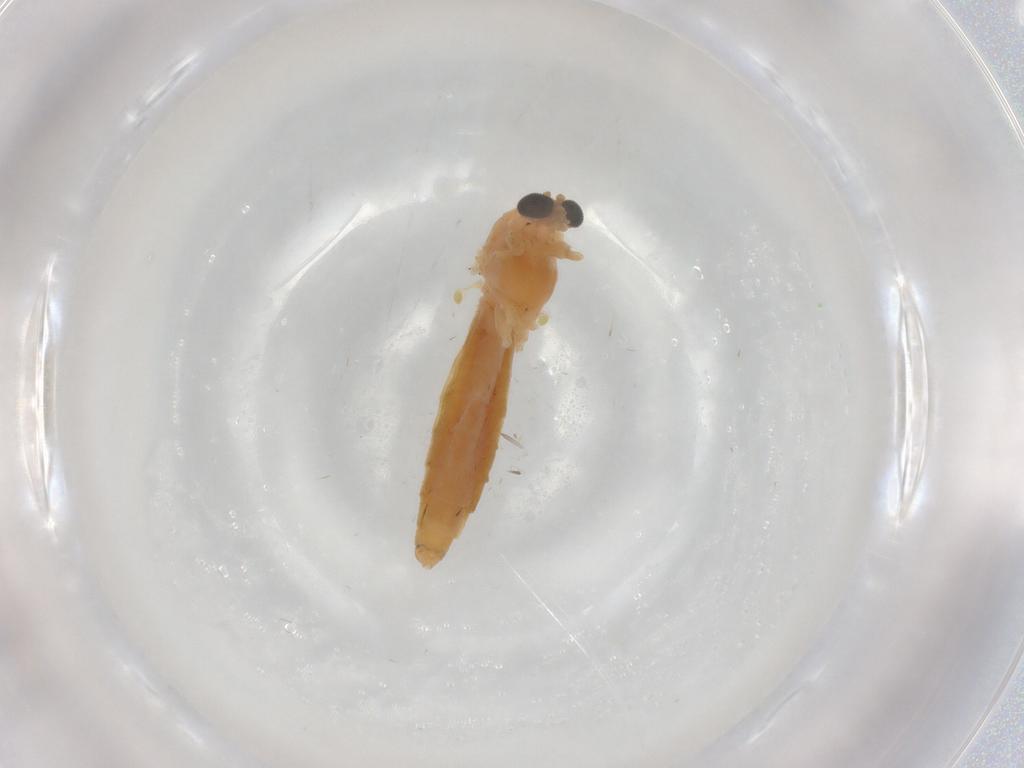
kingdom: Animalia
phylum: Arthropoda
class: Insecta
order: Diptera
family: Chironomidae
